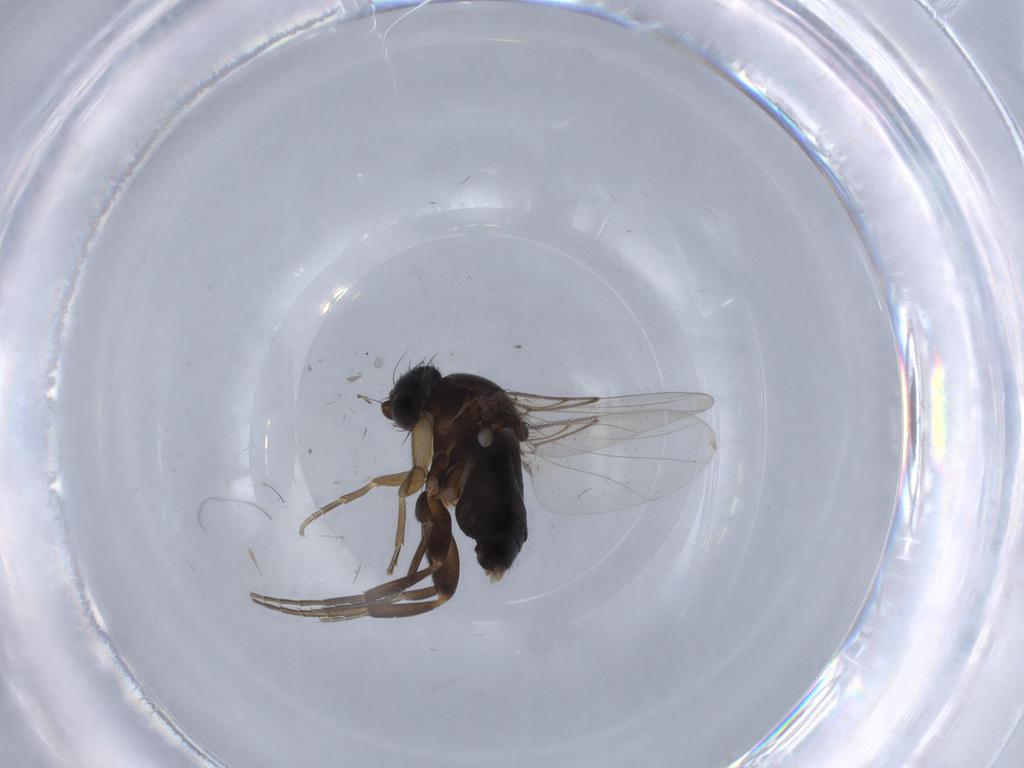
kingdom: Animalia
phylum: Arthropoda
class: Insecta
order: Diptera
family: Phoridae
